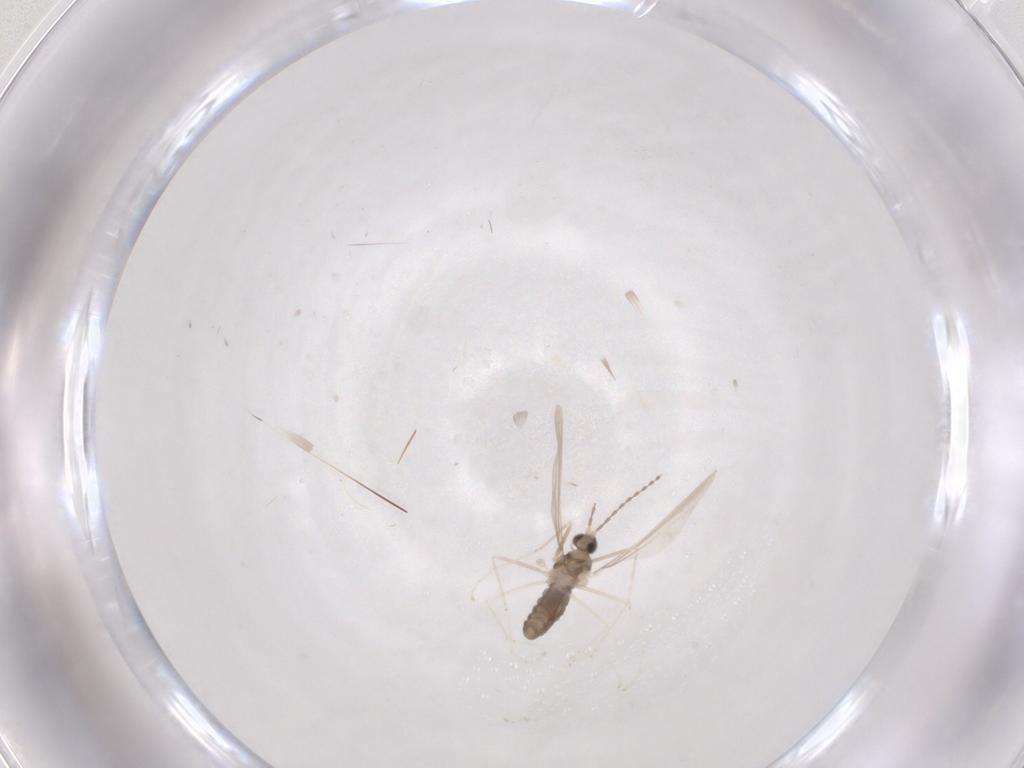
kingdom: Animalia
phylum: Arthropoda
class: Insecta
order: Diptera
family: Cecidomyiidae
